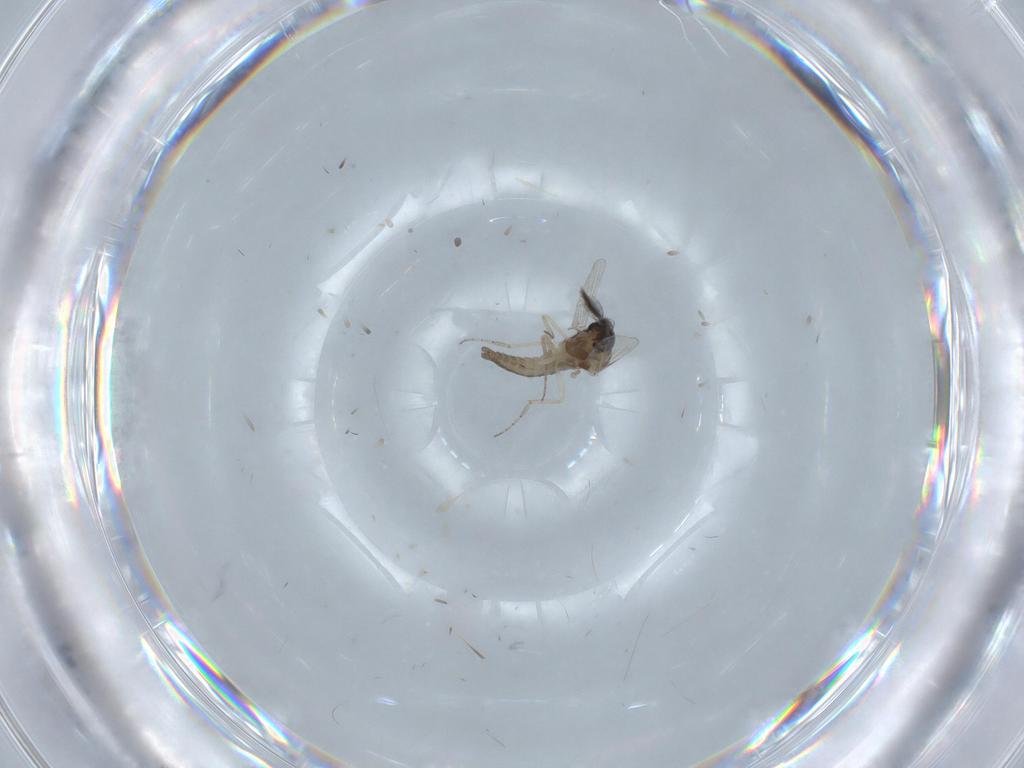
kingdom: Animalia
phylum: Arthropoda
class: Insecta
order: Diptera
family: Ceratopogonidae
